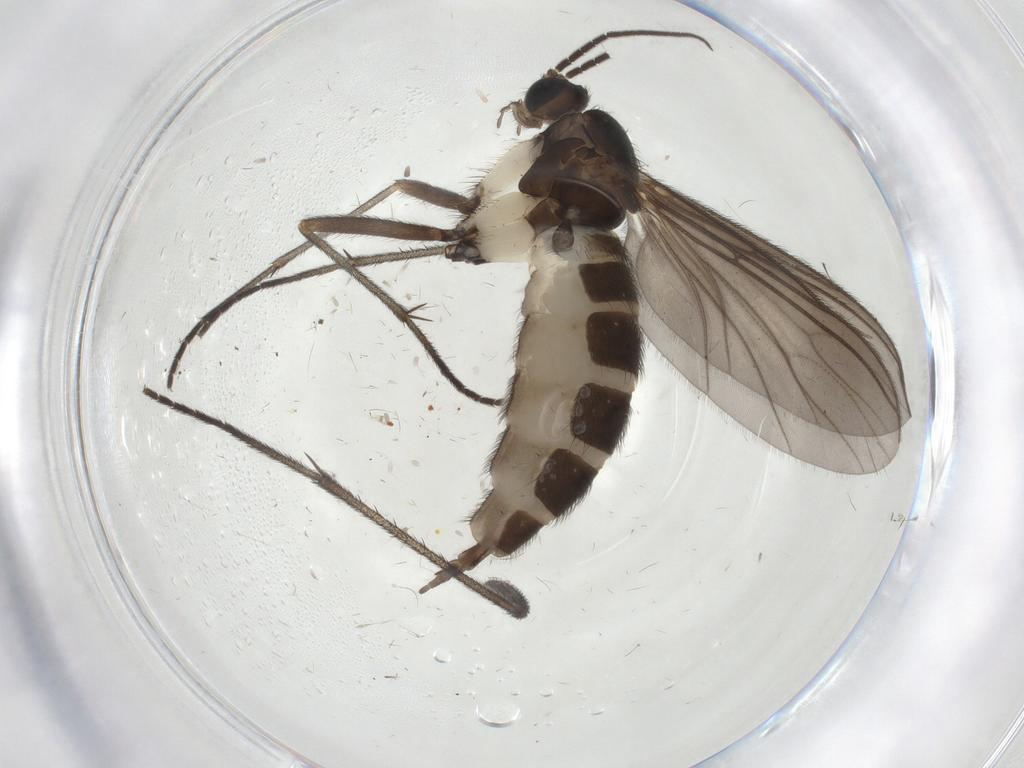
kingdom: Animalia
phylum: Arthropoda
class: Insecta
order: Diptera
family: Sciaridae
